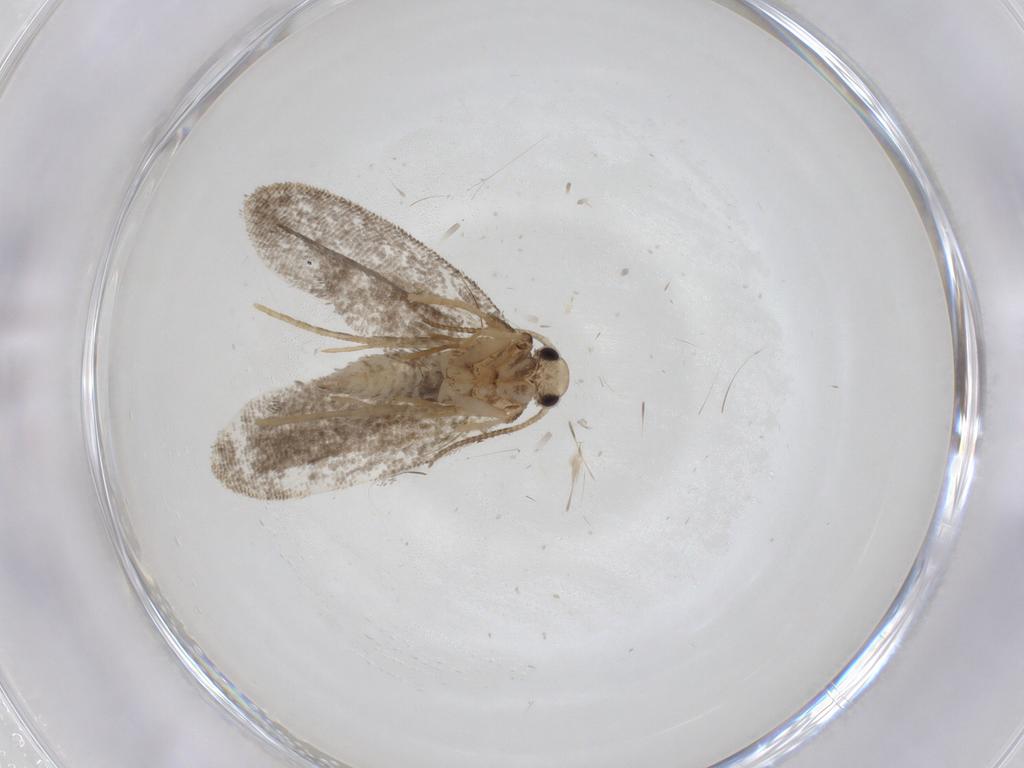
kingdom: Animalia
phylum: Arthropoda
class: Insecta
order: Lepidoptera
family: Psychidae
